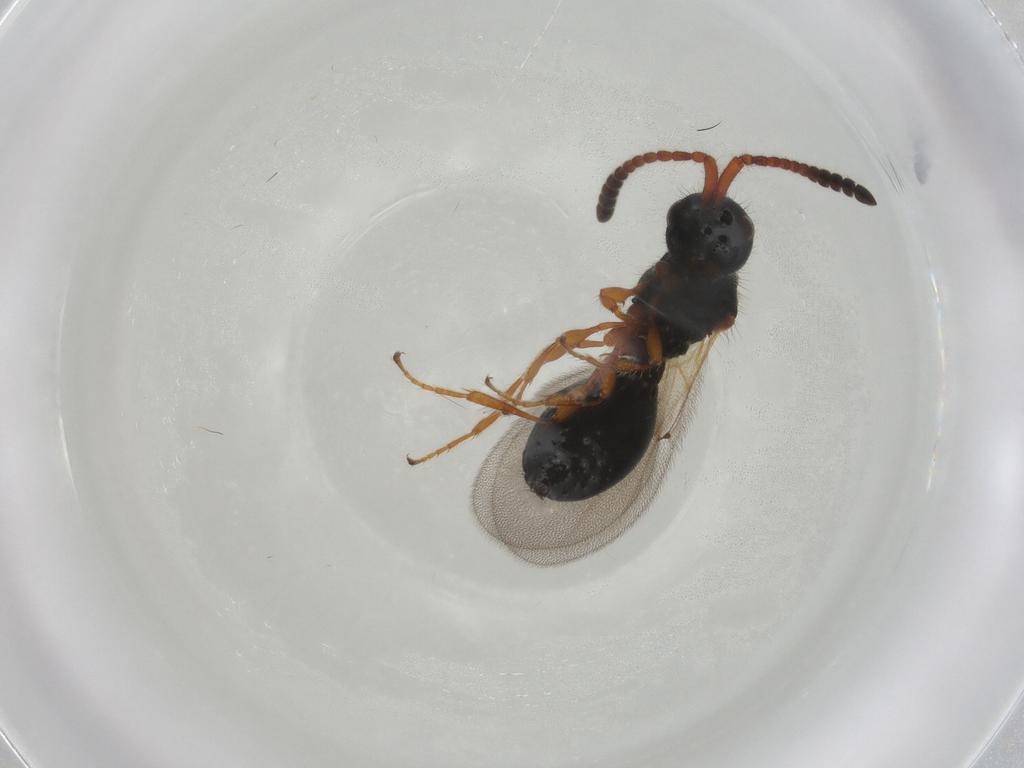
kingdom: Animalia
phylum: Arthropoda
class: Insecta
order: Hymenoptera
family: Diapriidae
